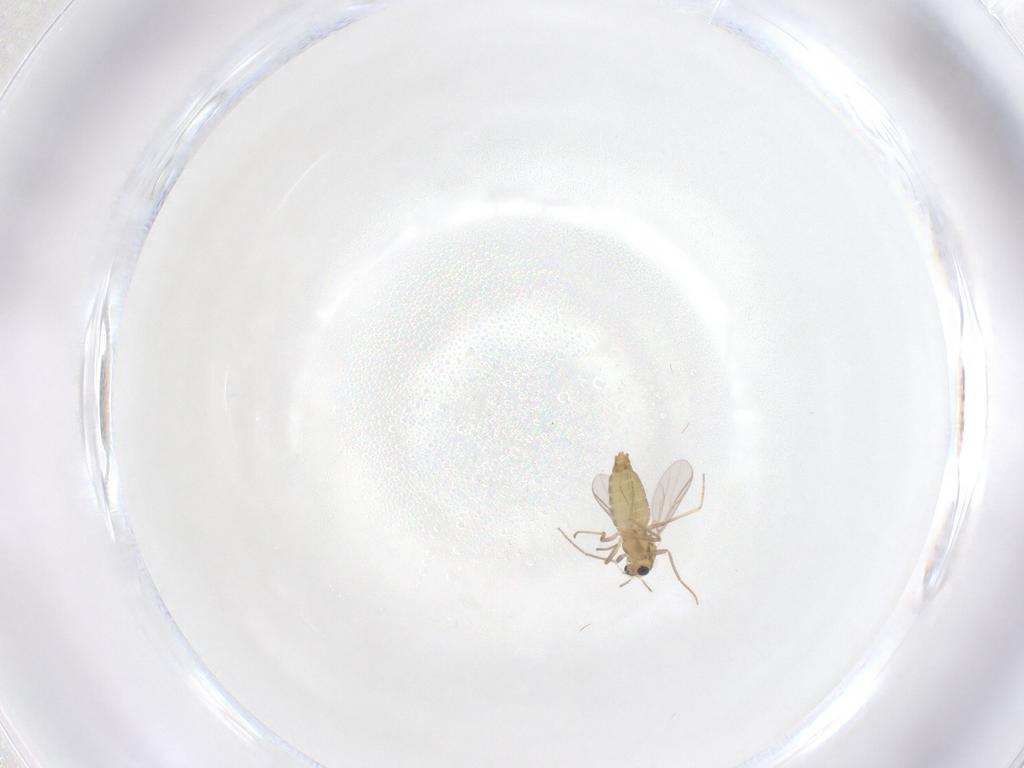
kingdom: Animalia
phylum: Arthropoda
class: Insecta
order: Diptera
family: Chironomidae
